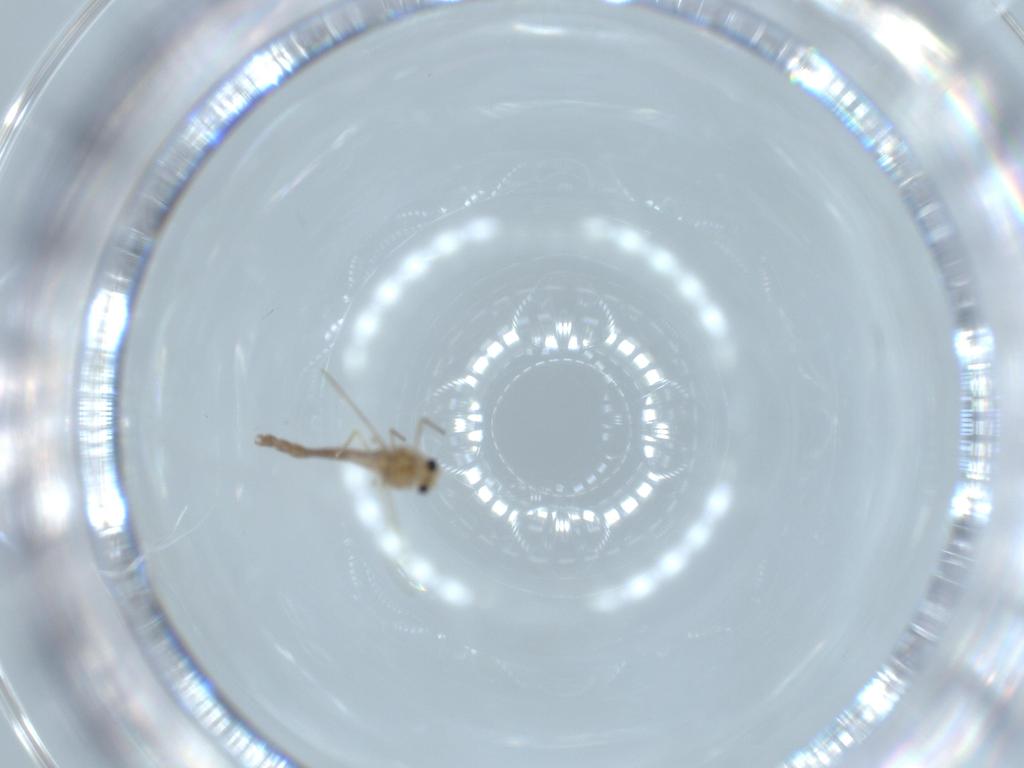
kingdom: Animalia
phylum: Arthropoda
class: Insecta
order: Diptera
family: Chironomidae
